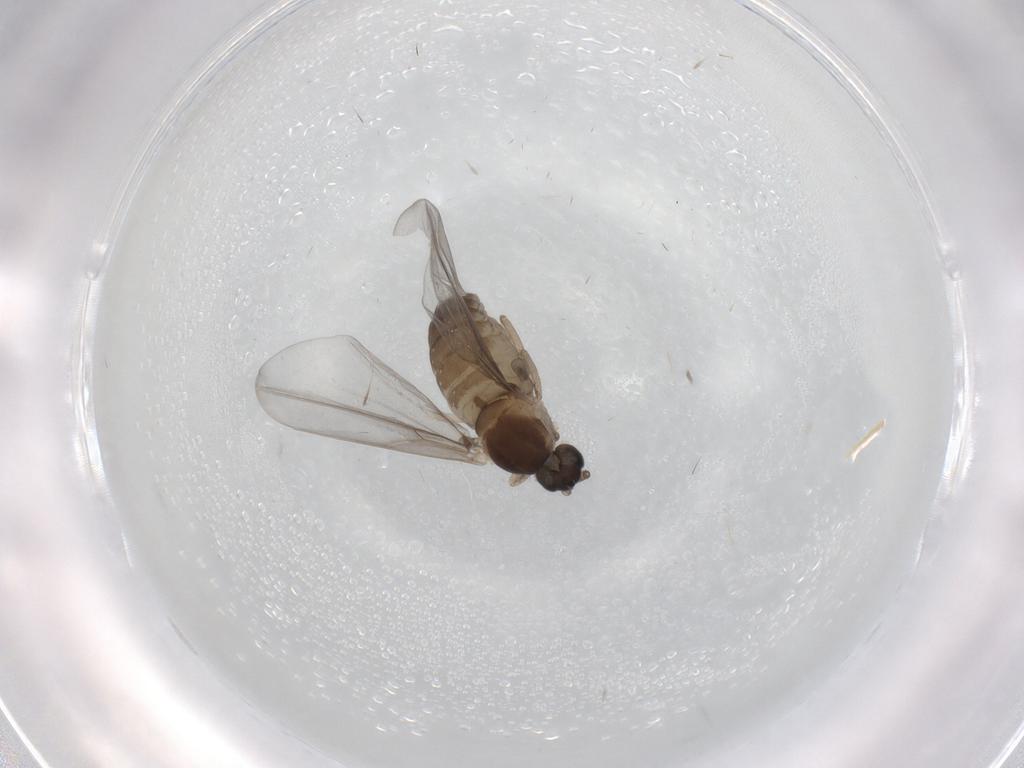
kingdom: Animalia
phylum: Arthropoda
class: Insecta
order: Diptera
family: Cecidomyiidae
